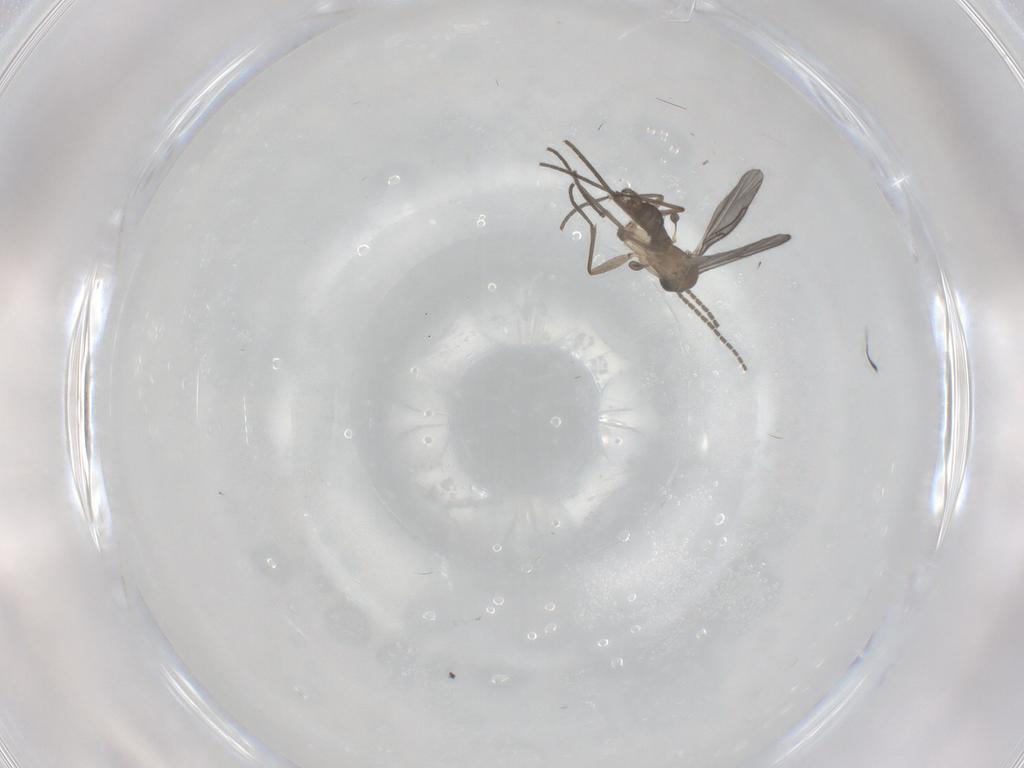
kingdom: Animalia
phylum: Arthropoda
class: Insecta
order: Diptera
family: Sciaridae
